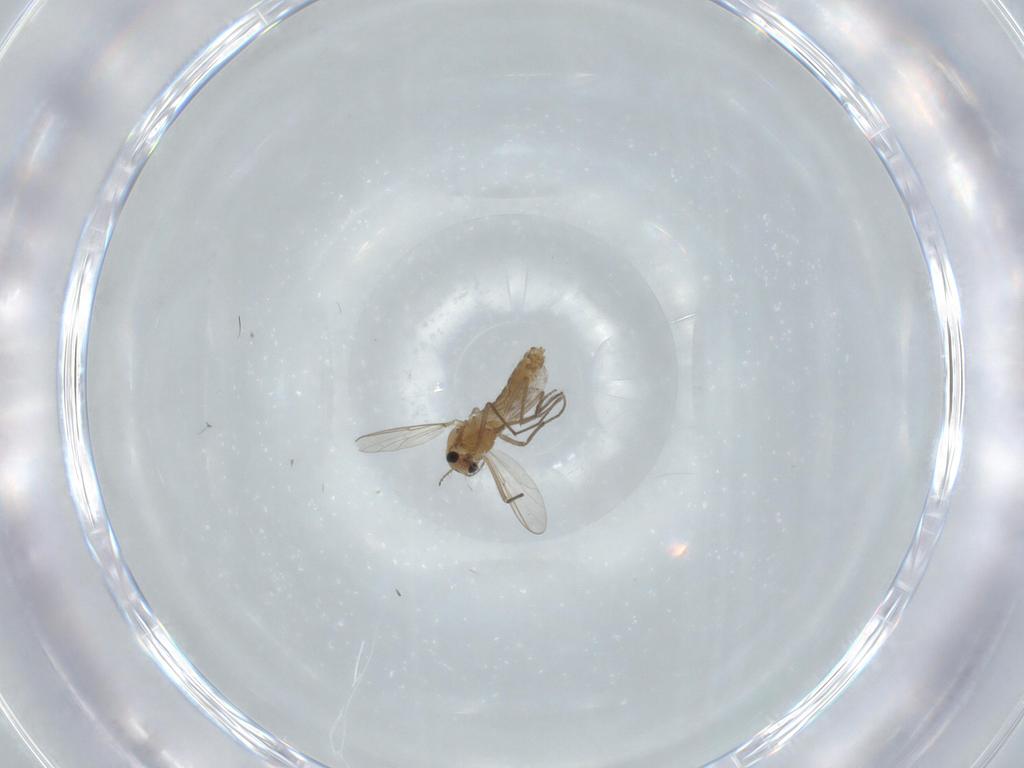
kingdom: Animalia
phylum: Arthropoda
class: Insecta
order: Diptera
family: Chironomidae
